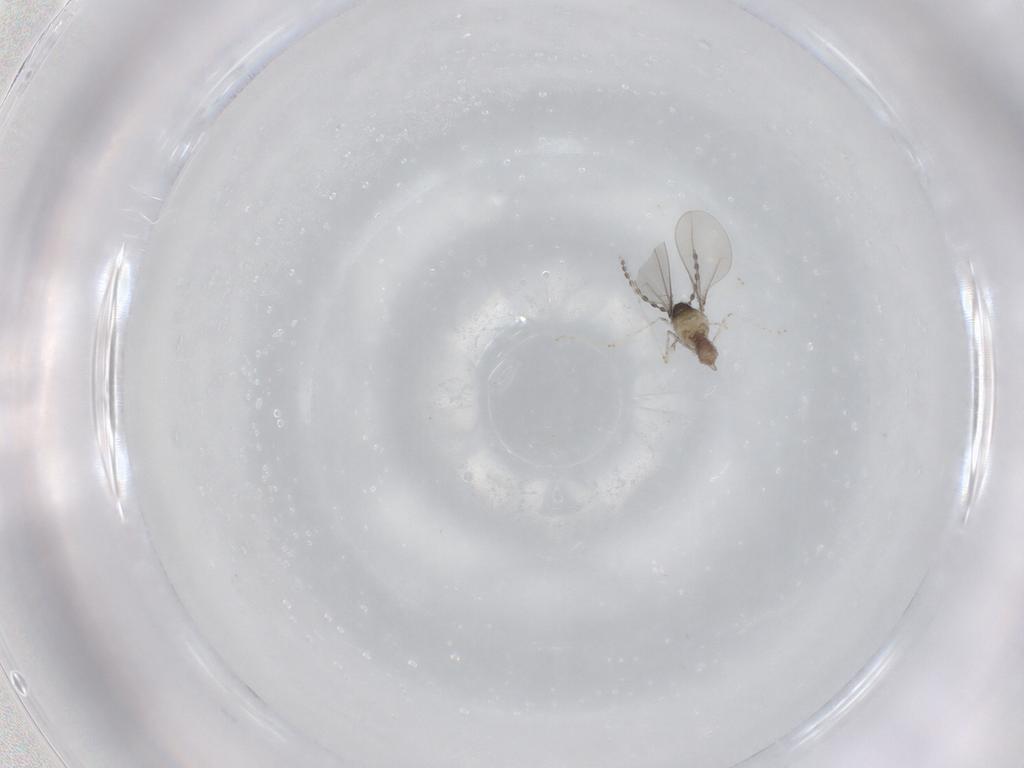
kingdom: Animalia
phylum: Arthropoda
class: Insecta
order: Diptera
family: Cecidomyiidae
